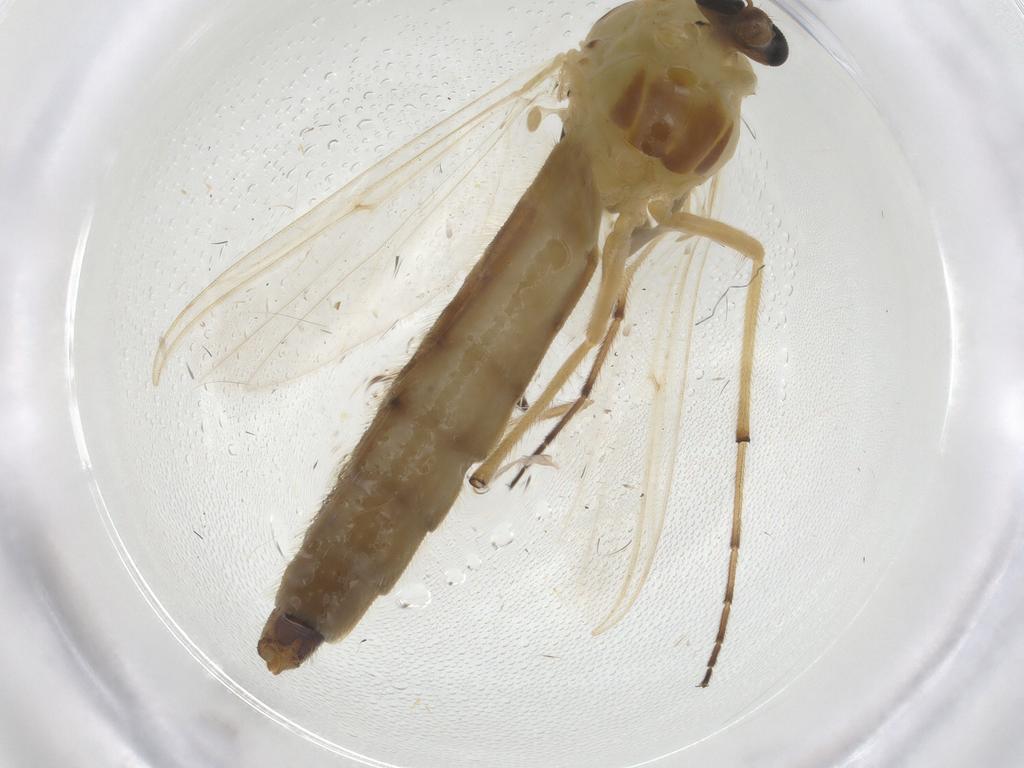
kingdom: Animalia
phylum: Arthropoda
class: Insecta
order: Diptera
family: Chironomidae
